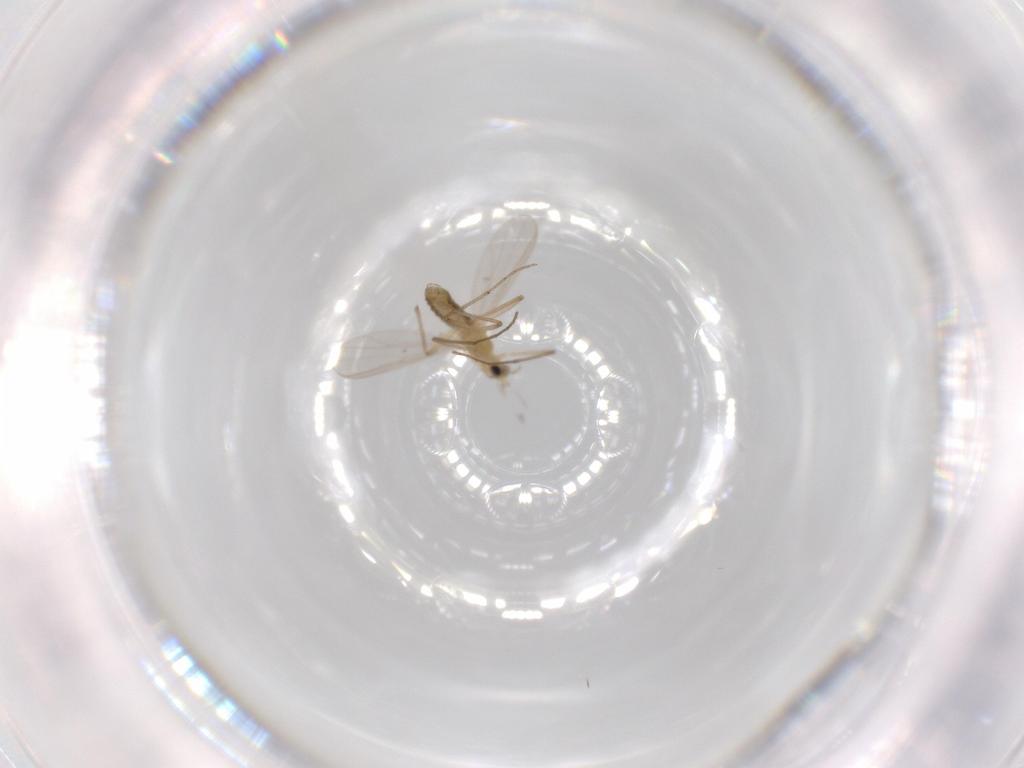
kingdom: Animalia
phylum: Arthropoda
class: Insecta
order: Diptera
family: Chironomidae
